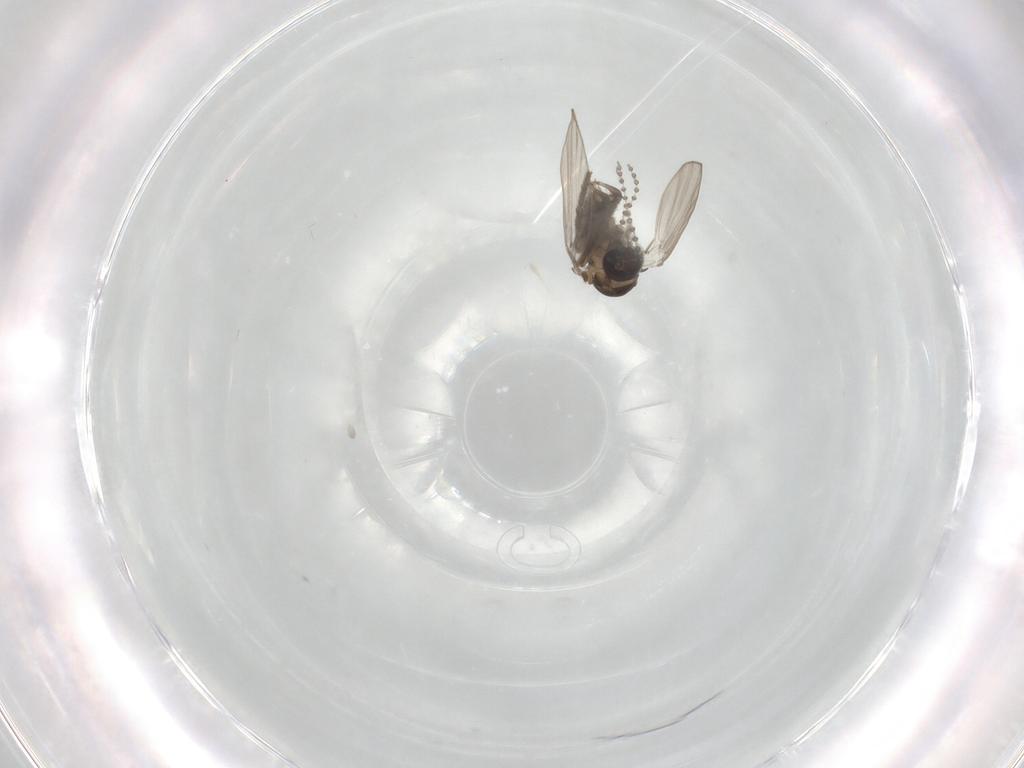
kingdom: Animalia
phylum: Arthropoda
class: Insecta
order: Diptera
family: Psychodidae
